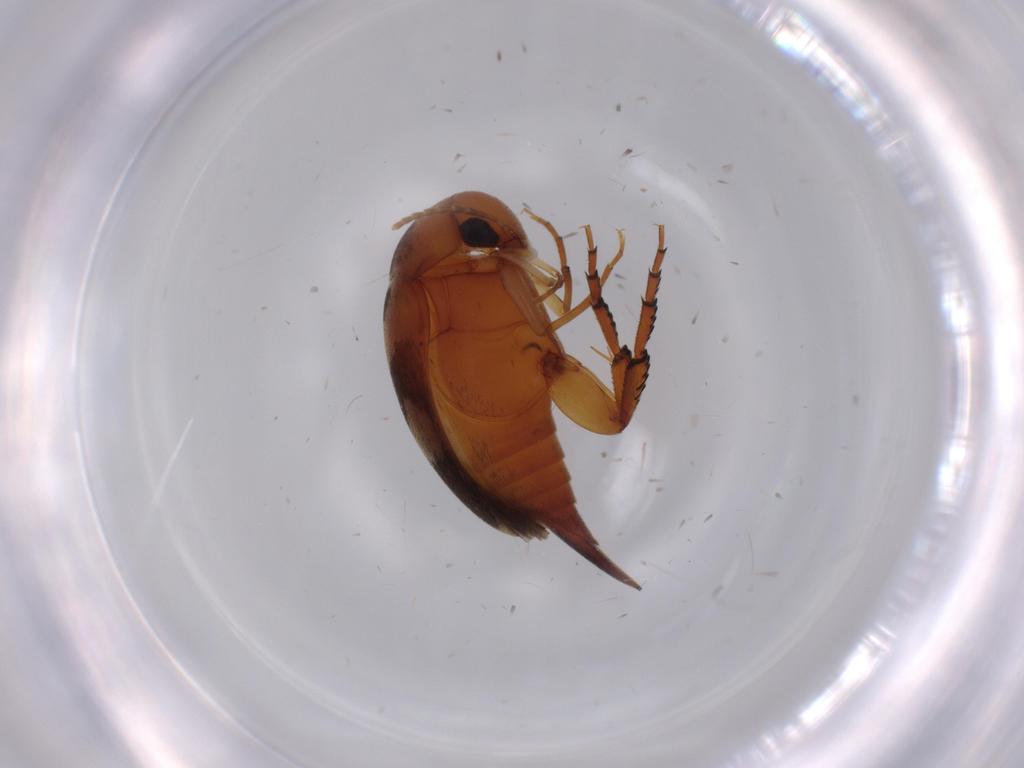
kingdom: Animalia
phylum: Arthropoda
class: Insecta
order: Coleoptera
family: Mordellidae
